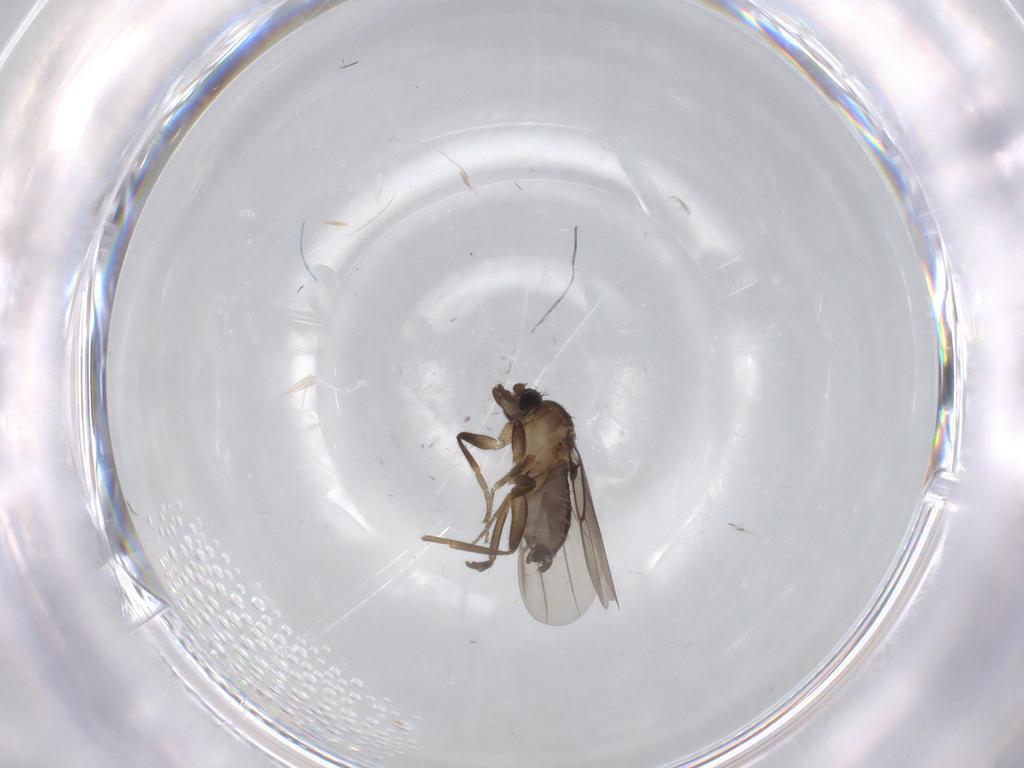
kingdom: Animalia
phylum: Arthropoda
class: Insecta
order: Diptera
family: Phoridae
